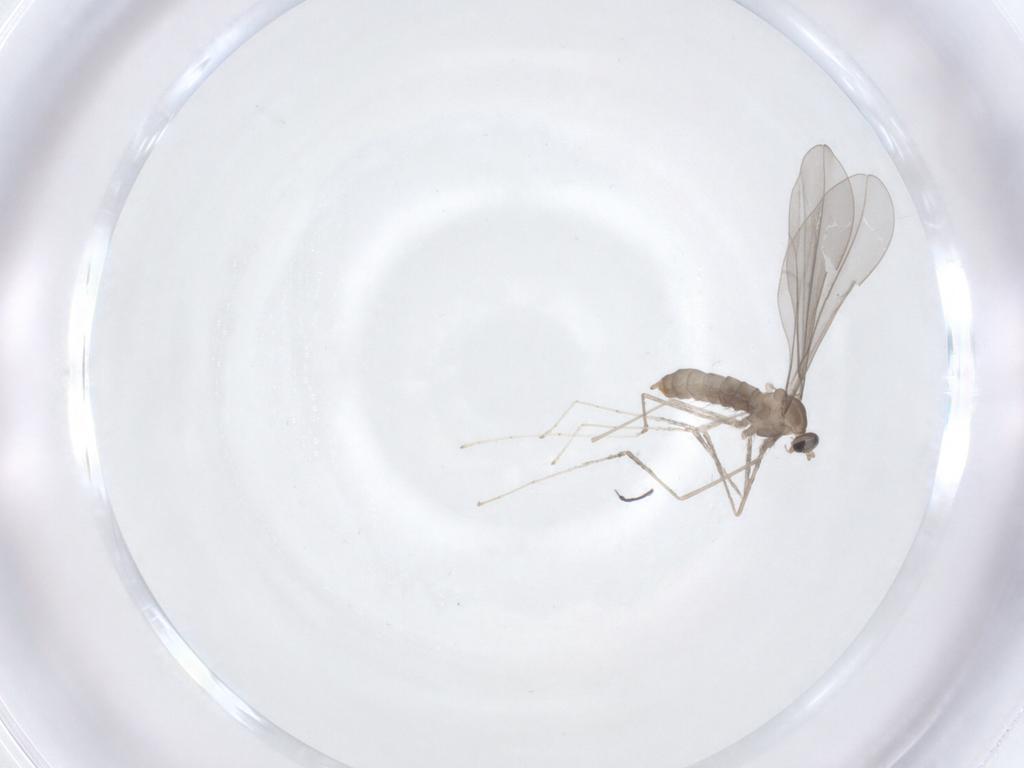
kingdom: Animalia
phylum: Arthropoda
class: Insecta
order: Diptera
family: Cecidomyiidae
